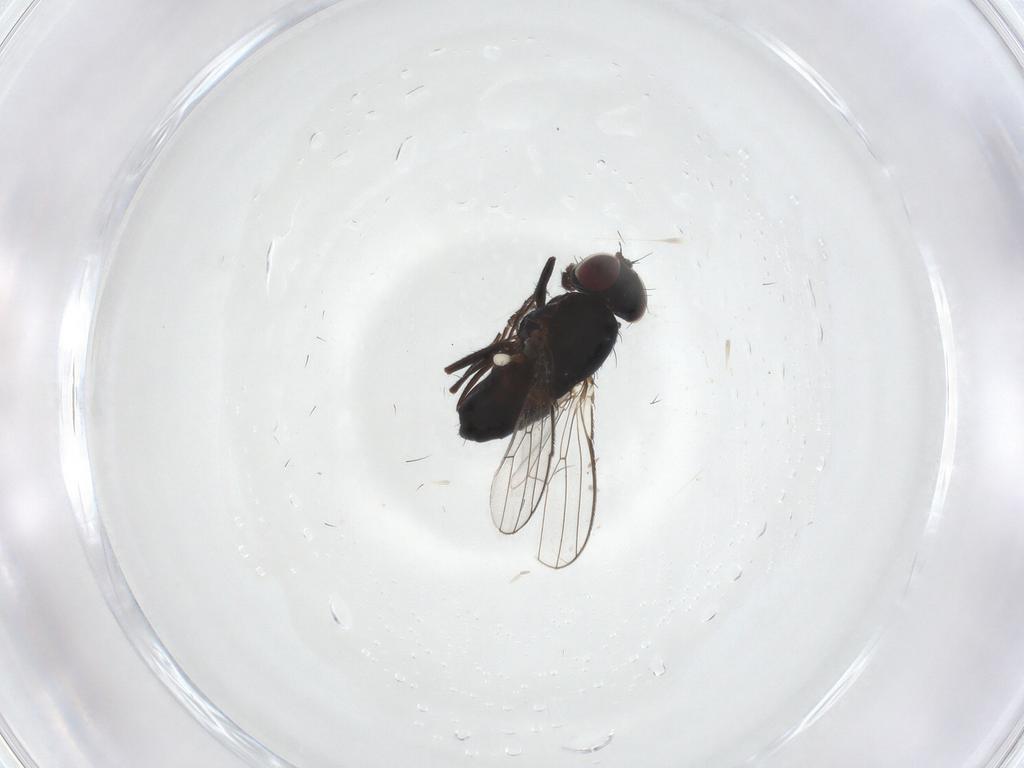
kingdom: Animalia
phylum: Arthropoda
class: Insecta
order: Diptera
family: Carnidae
